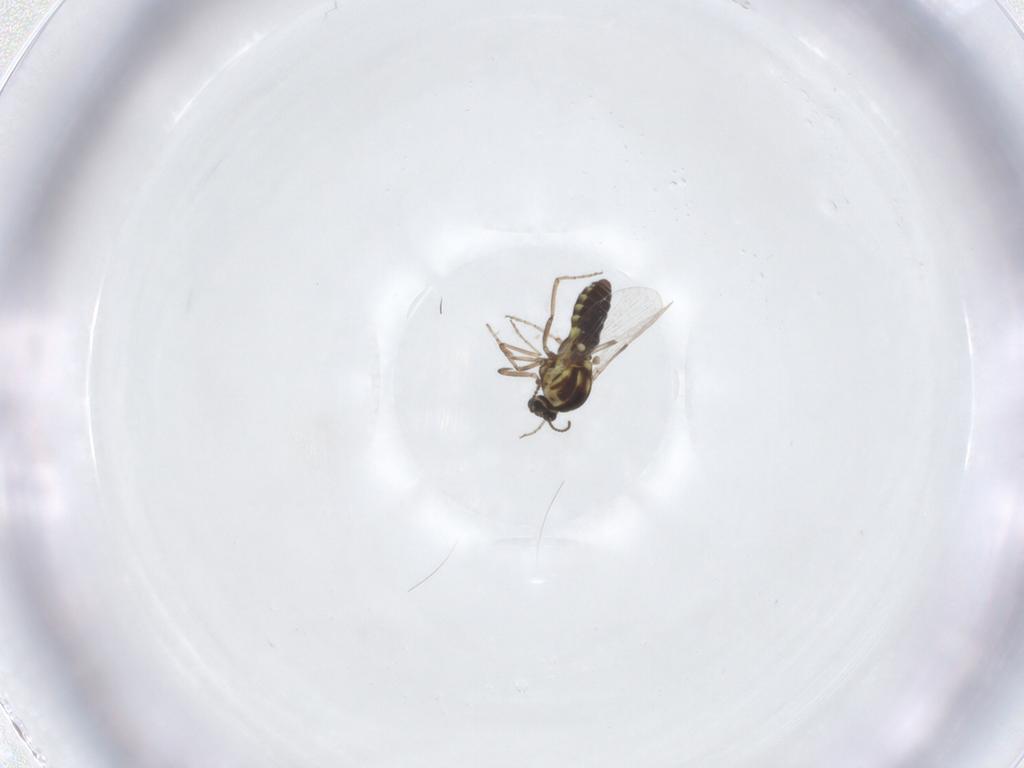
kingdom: Animalia
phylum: Arthropoda
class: Insecta
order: Diptera
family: Ceratopogonidae
